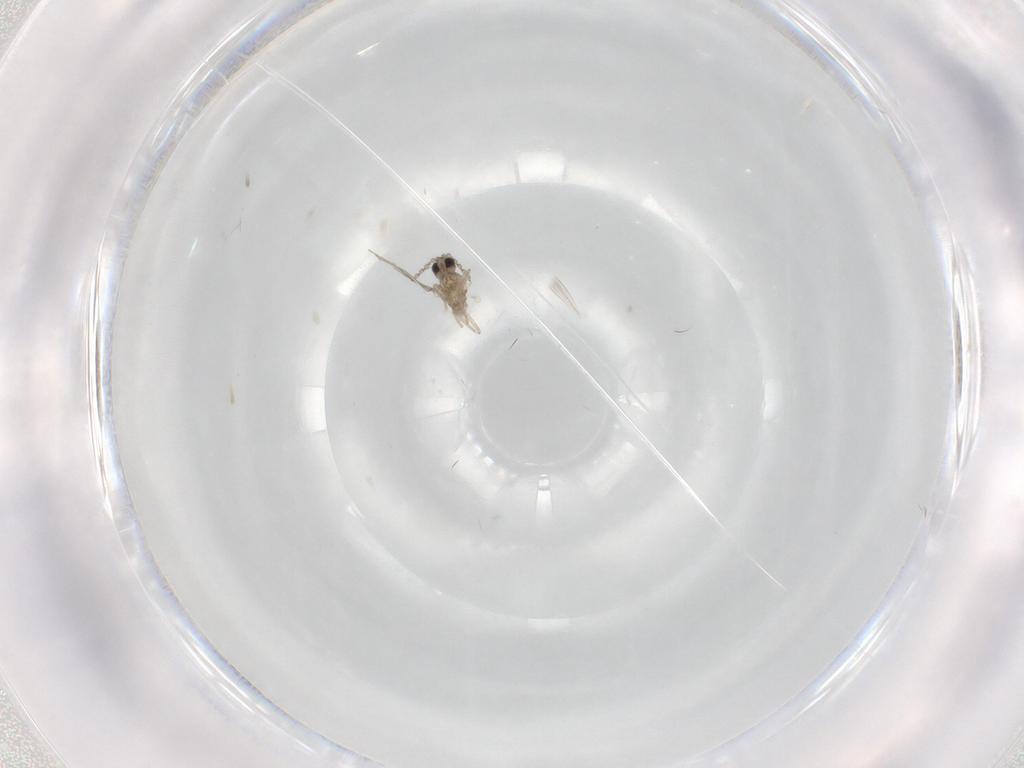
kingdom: Animalia
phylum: Arthropoda
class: Insecta
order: Diptera
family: Cecidomyiidae
